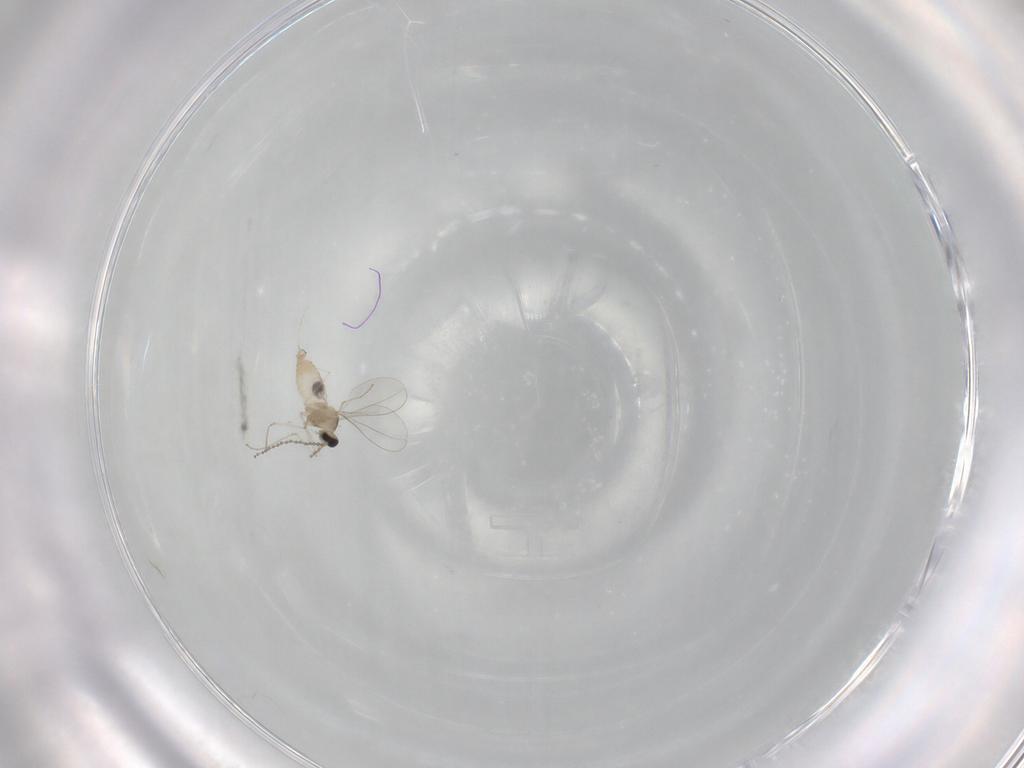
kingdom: Animalia
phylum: Arthropoda
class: Insecta
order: Diptera
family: Cecidomyiidae
